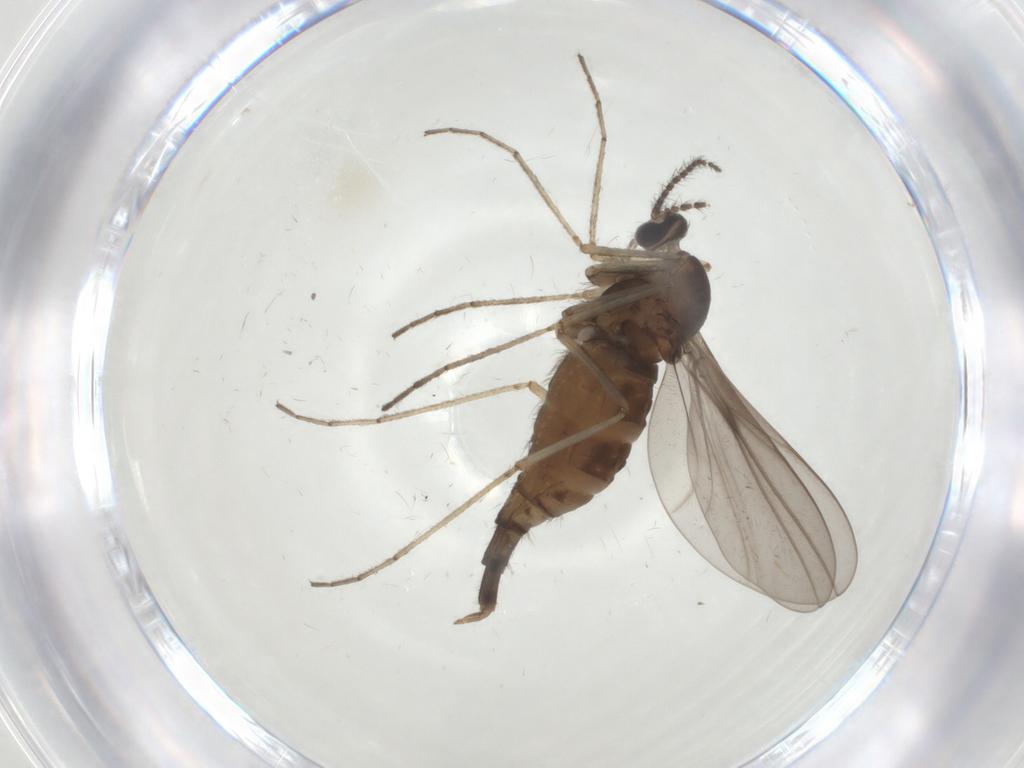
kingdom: Animalia
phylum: Arthropoda
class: Insecta
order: Diptera
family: Cecidomyiidae
